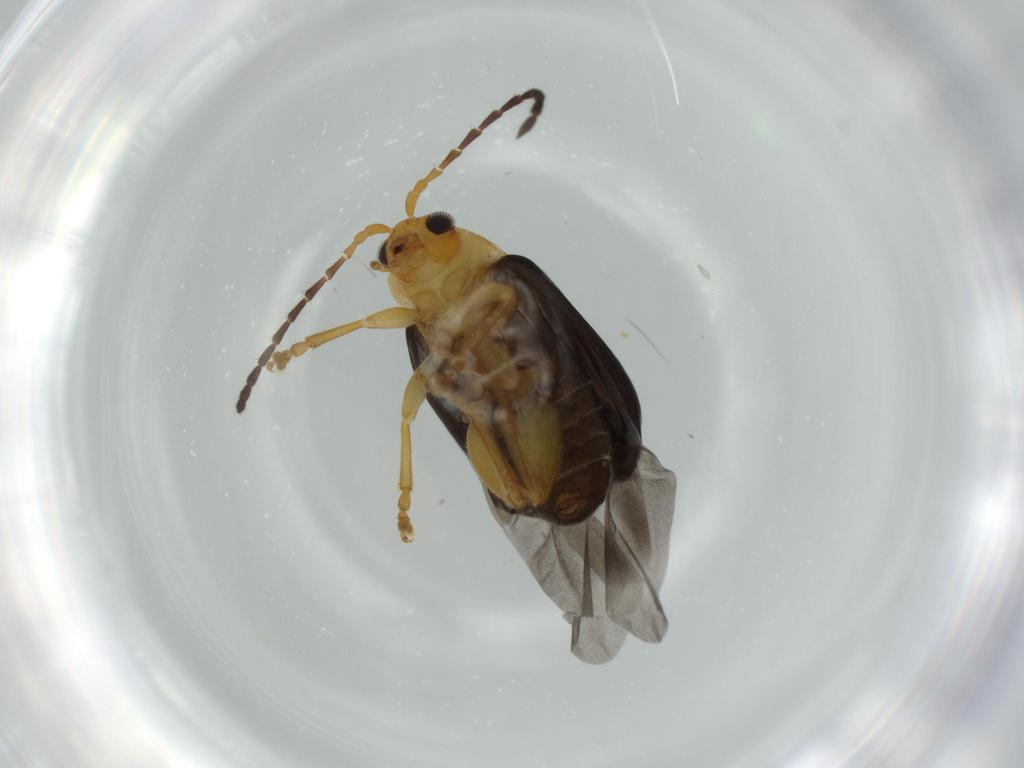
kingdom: Animalia
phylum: Arthropoda
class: Insecta
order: Coleoptera
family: Chrysomelidae
